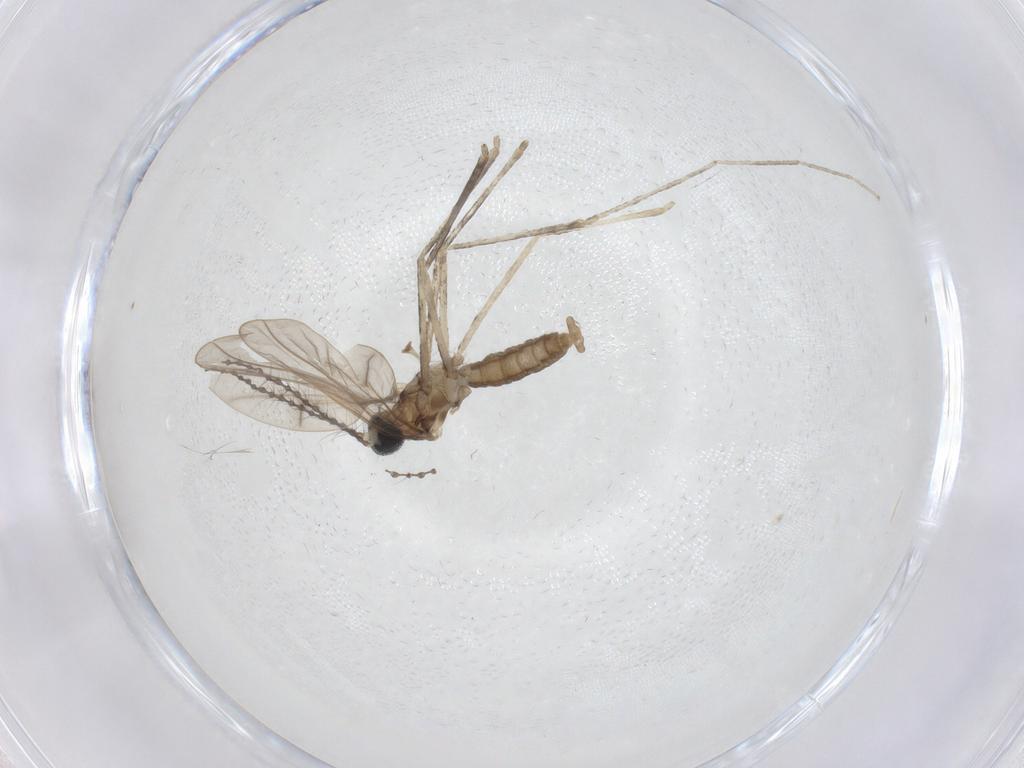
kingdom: Animalia
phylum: Arthropoda
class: Insecta
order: Diptera
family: Cecidomyiidae
